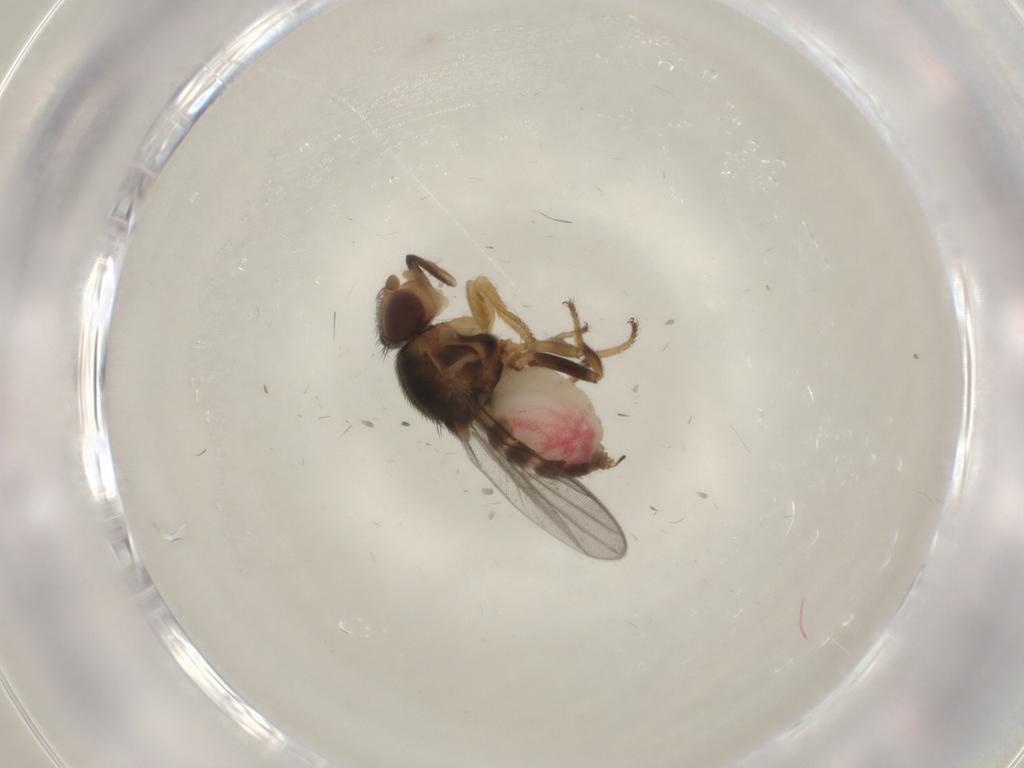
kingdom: Animalia
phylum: Arthropoda
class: Insecta
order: Diptera
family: Chloropidae
